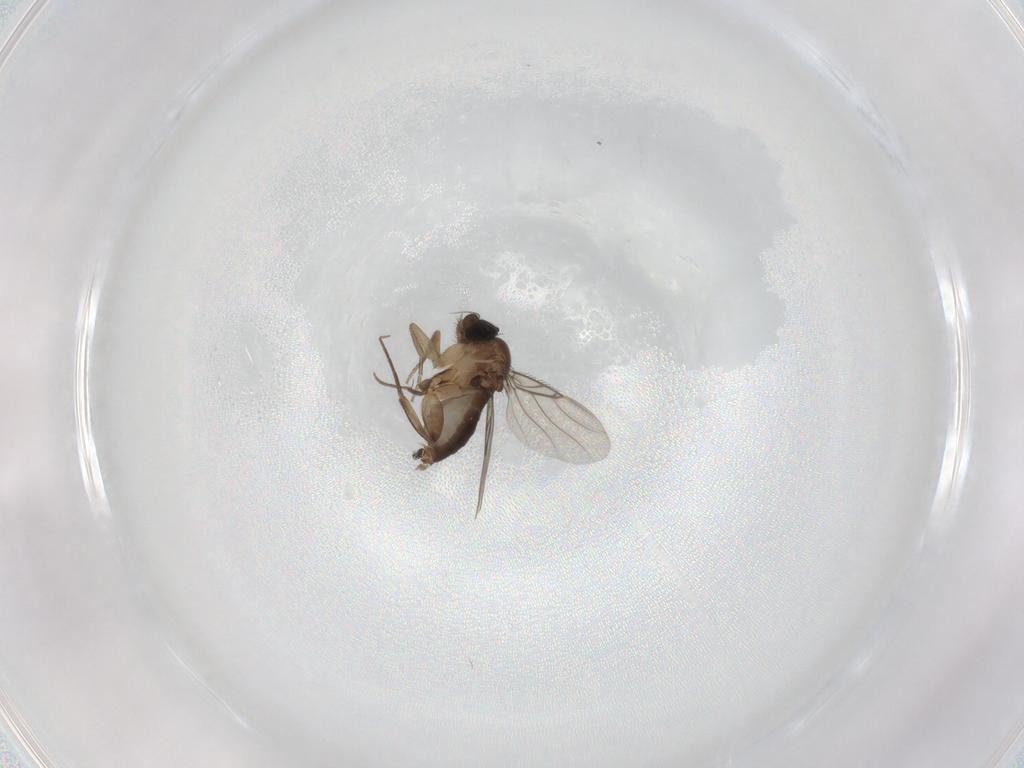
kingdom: Animalia
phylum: Arthropoda
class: Insecta
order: Diptera
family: Phoridae
